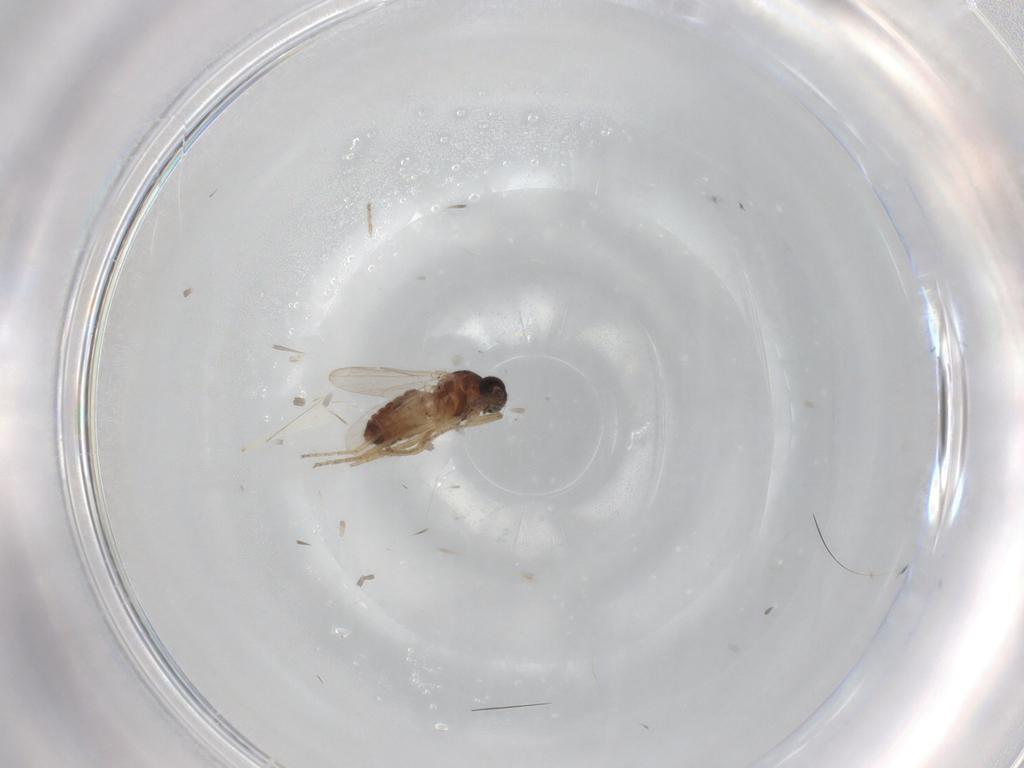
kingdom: Animalia
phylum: Arthropoda
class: Insecta
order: Diptera
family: Ceratopogonidae
